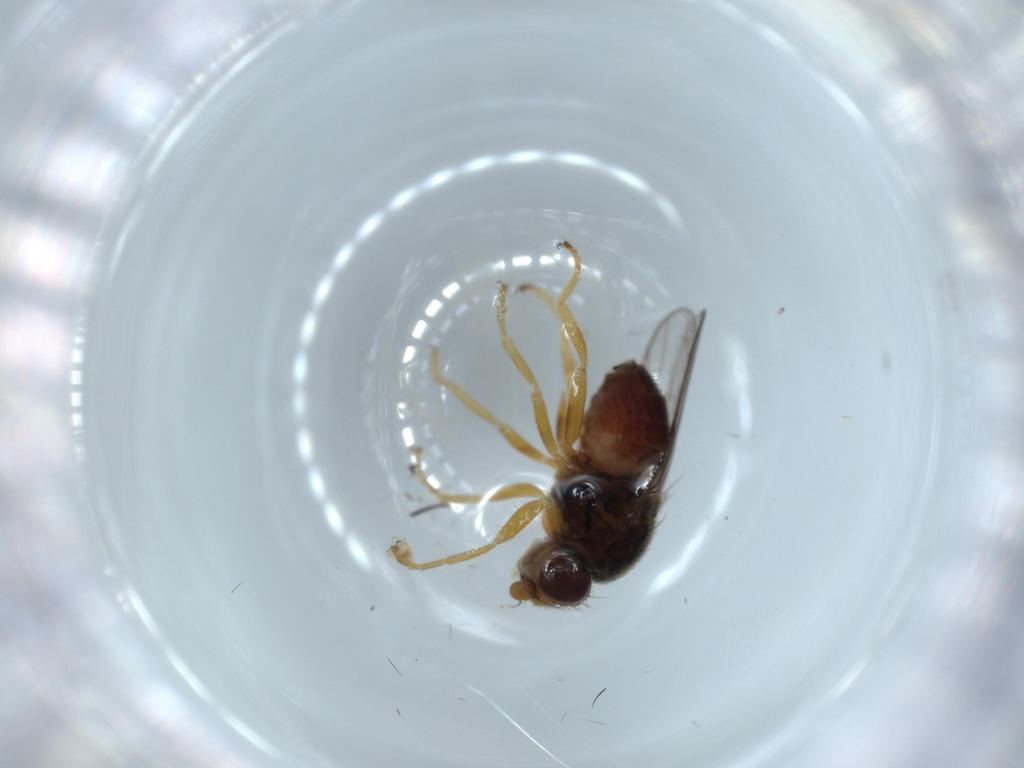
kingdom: Animalia
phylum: Arthropoda
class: Insecta
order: Diptera
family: Chloropidae
